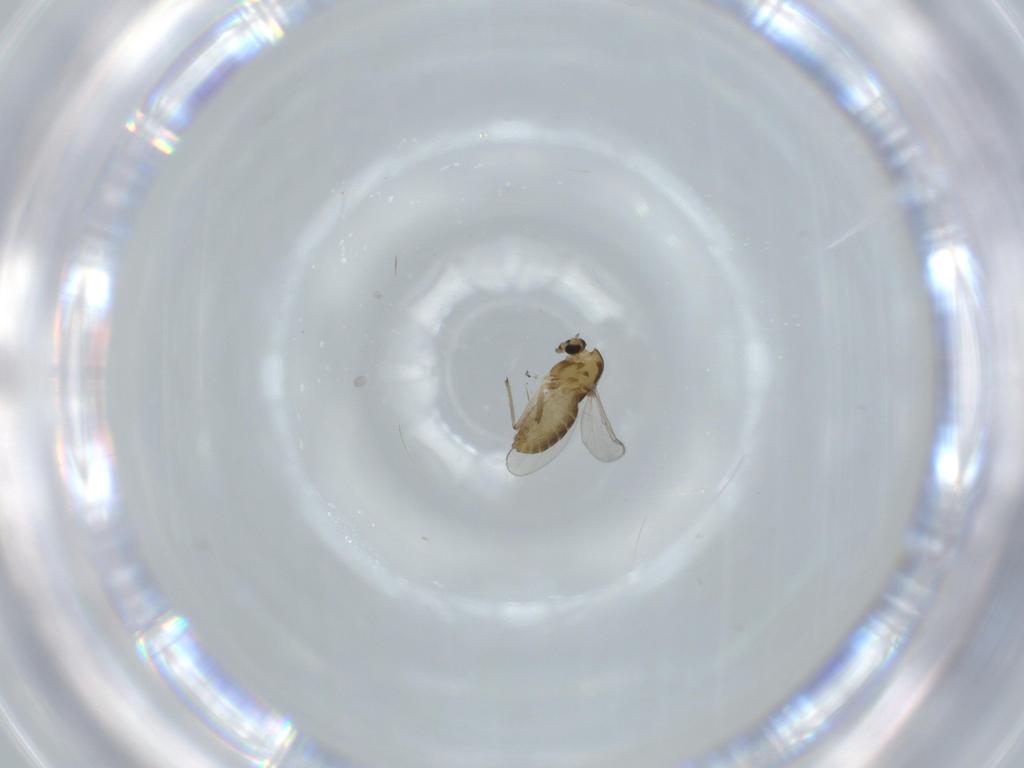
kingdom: Animalia
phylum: Arthropoda
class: Insecta
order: Diptera
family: Chironomidae
